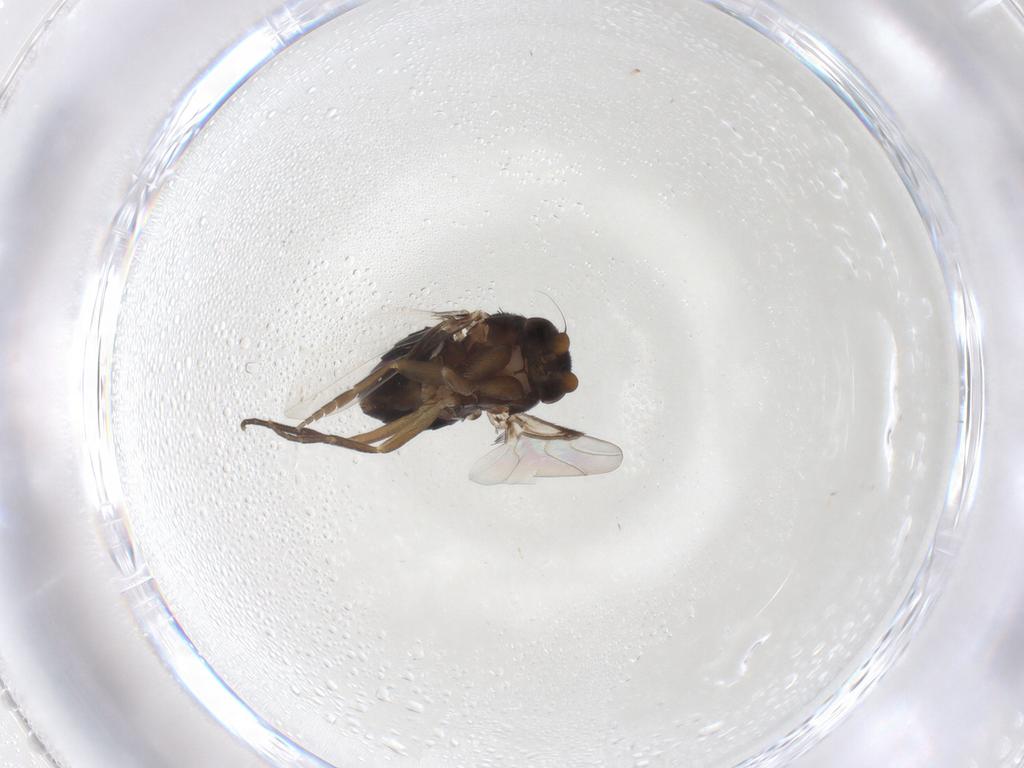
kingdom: Animalia
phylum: Arthropoda
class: Insecta
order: Diptera
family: Phoridae
